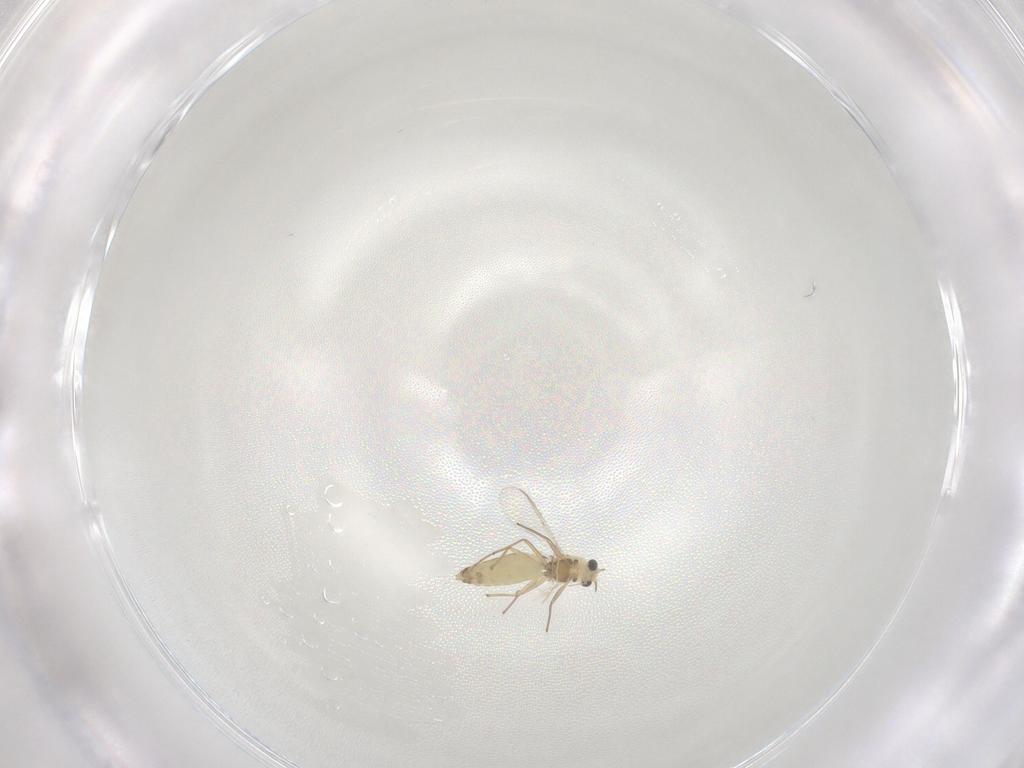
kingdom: Animalia
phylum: Arthropoda
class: Insecta
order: Diptera
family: Chironomidae
